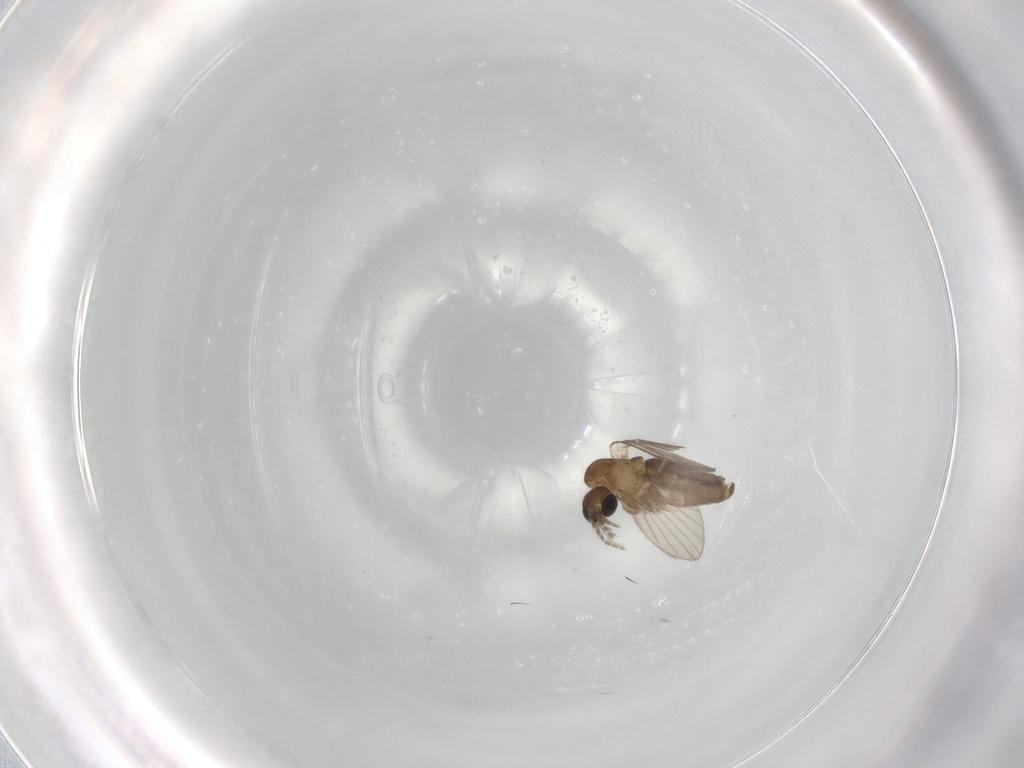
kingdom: Animalia
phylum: Arthropoda
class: Insecta
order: Diptera
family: Chironomidae
